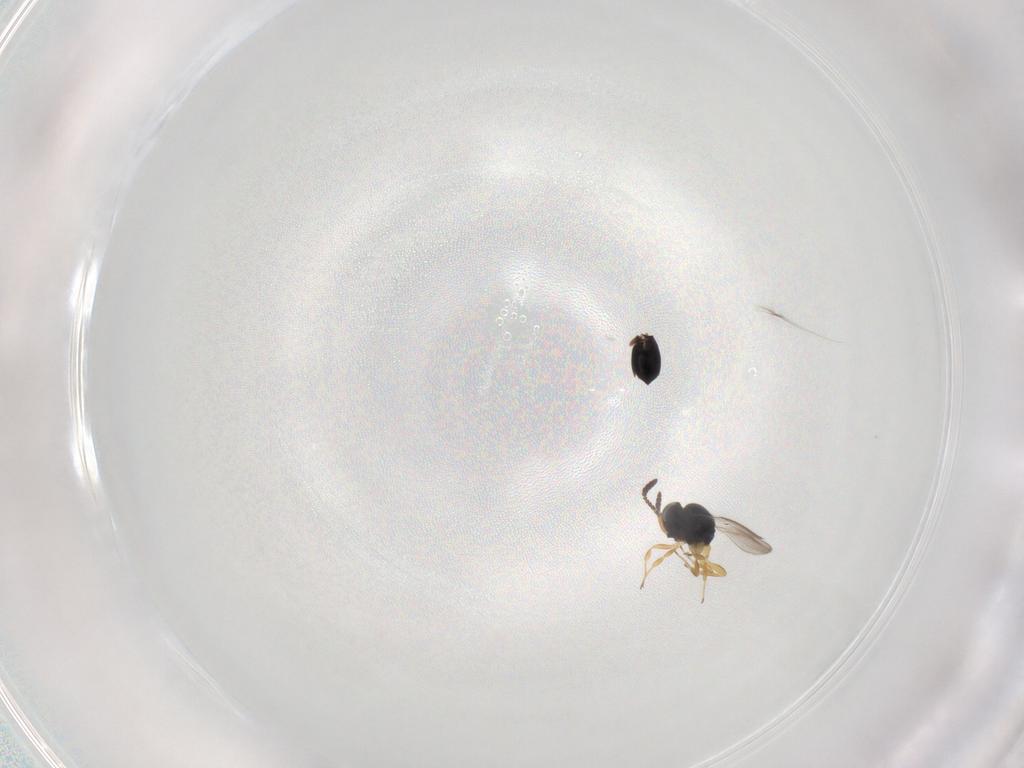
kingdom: Animalia
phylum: Arthropoda
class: Insecta
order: Hymenoptera
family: Scelionidae
